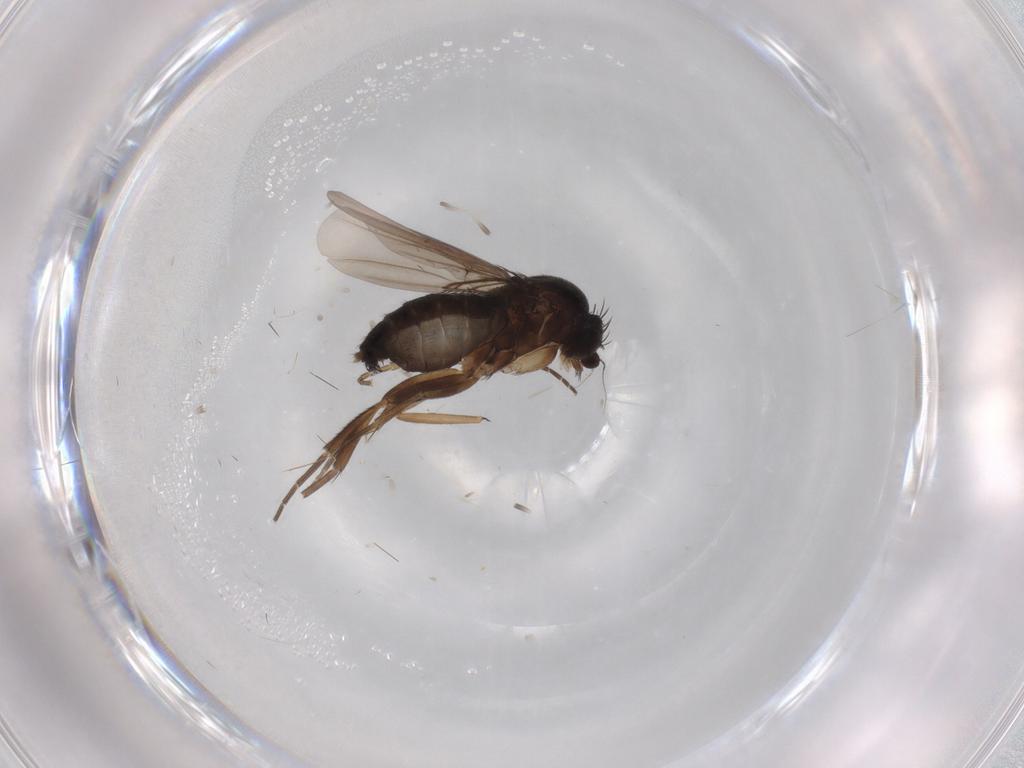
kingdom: Animalia
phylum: Arthropoda
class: Insecta
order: Diptera
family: Phoridae
